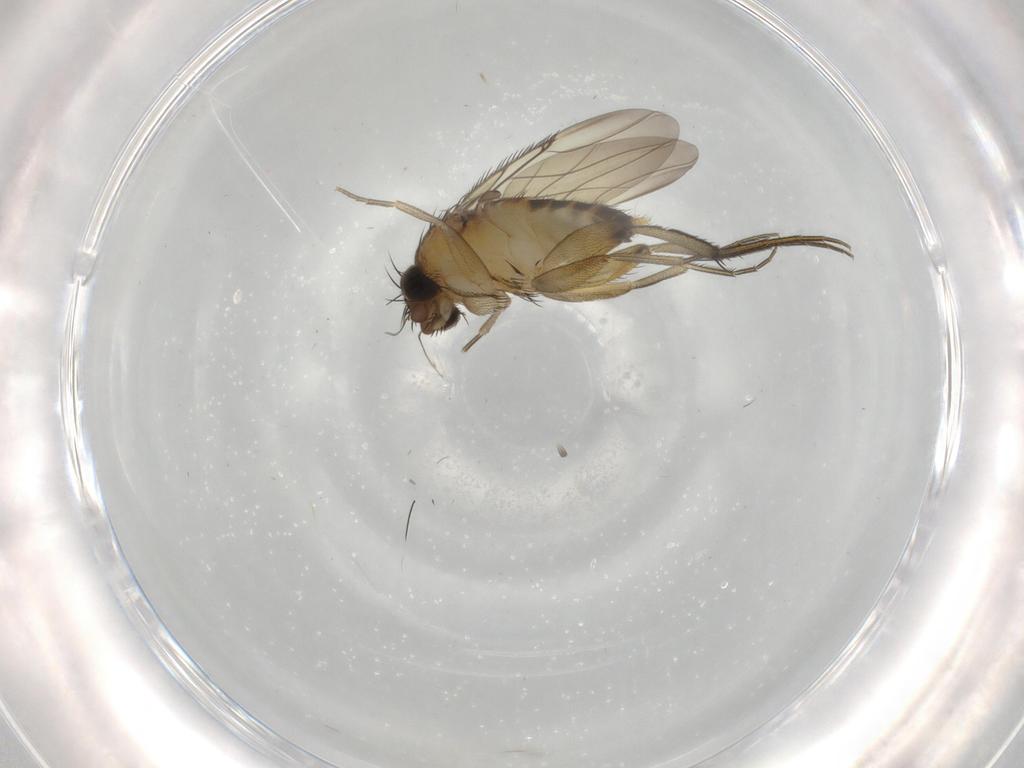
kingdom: Animalia
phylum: Arthropoda
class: Insecta
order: Diptera
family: Phoridae
